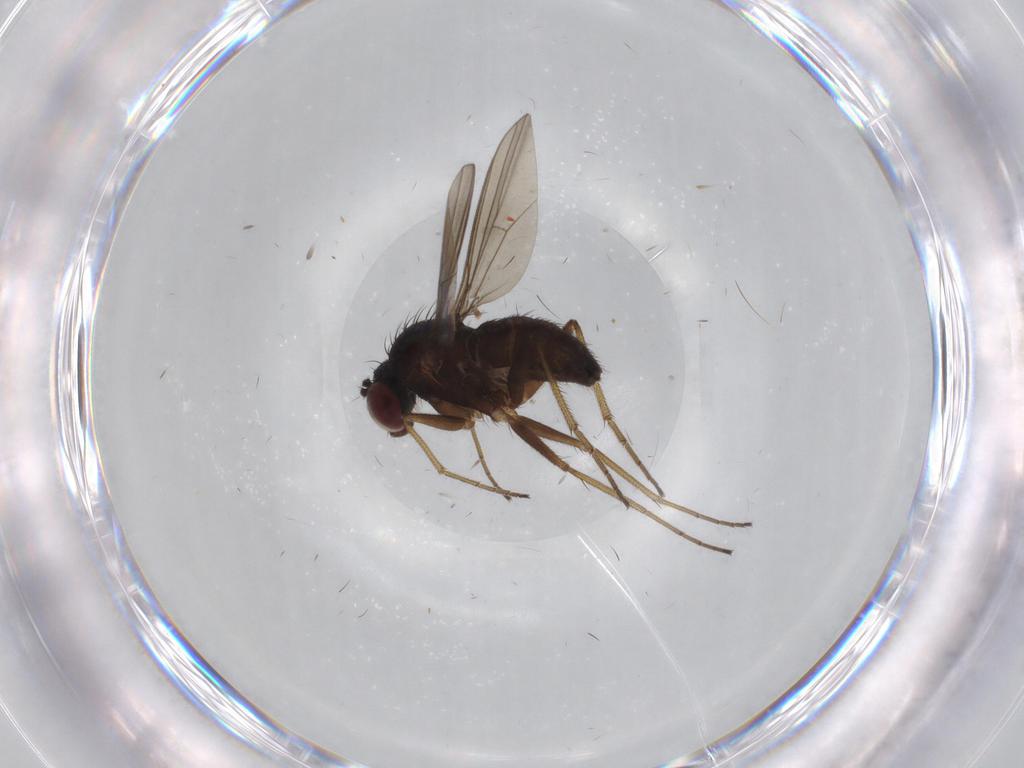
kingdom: Animalia
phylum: Arthropoda
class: Insecta
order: Diptera
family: Dolichopodidae
